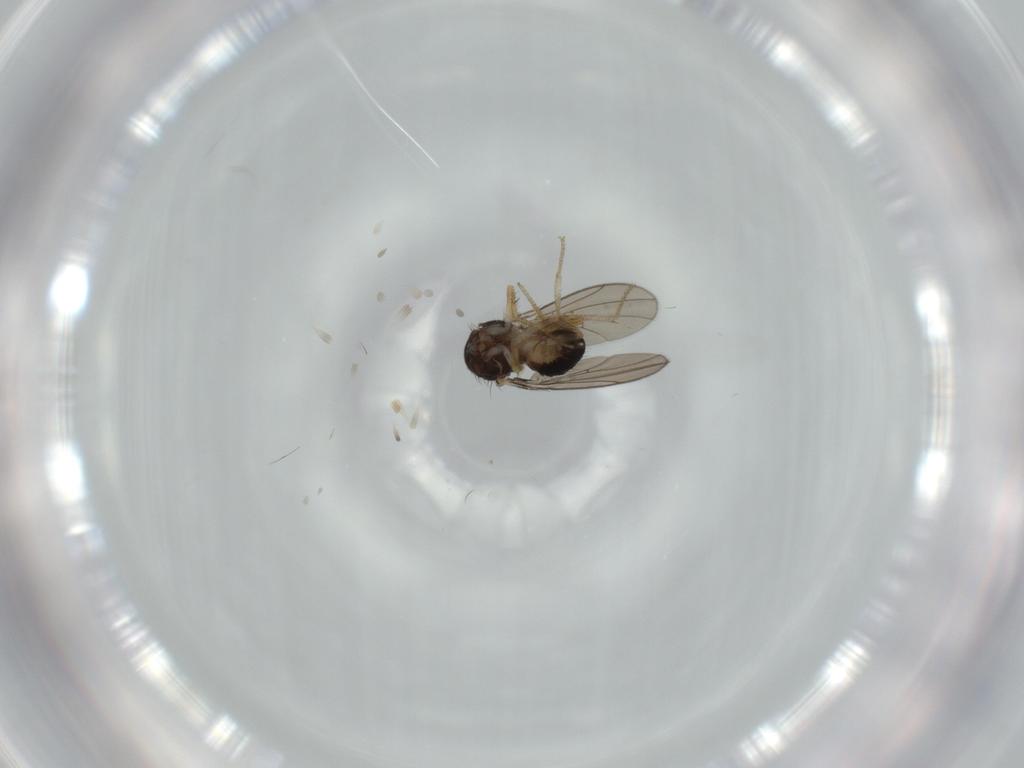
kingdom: Animalia
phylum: Arthropoda
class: Insecta
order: Diptera
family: Drosophilidae
